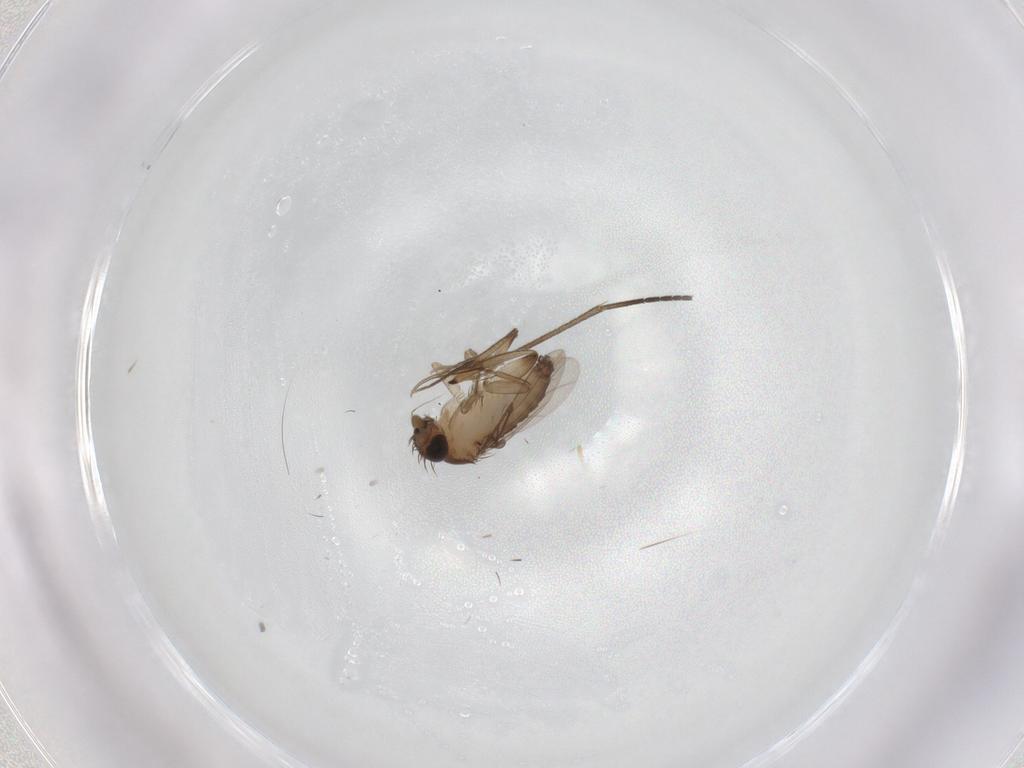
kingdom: Animalia
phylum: Arthropoda
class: Insecta
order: Diptera
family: Phoridae
